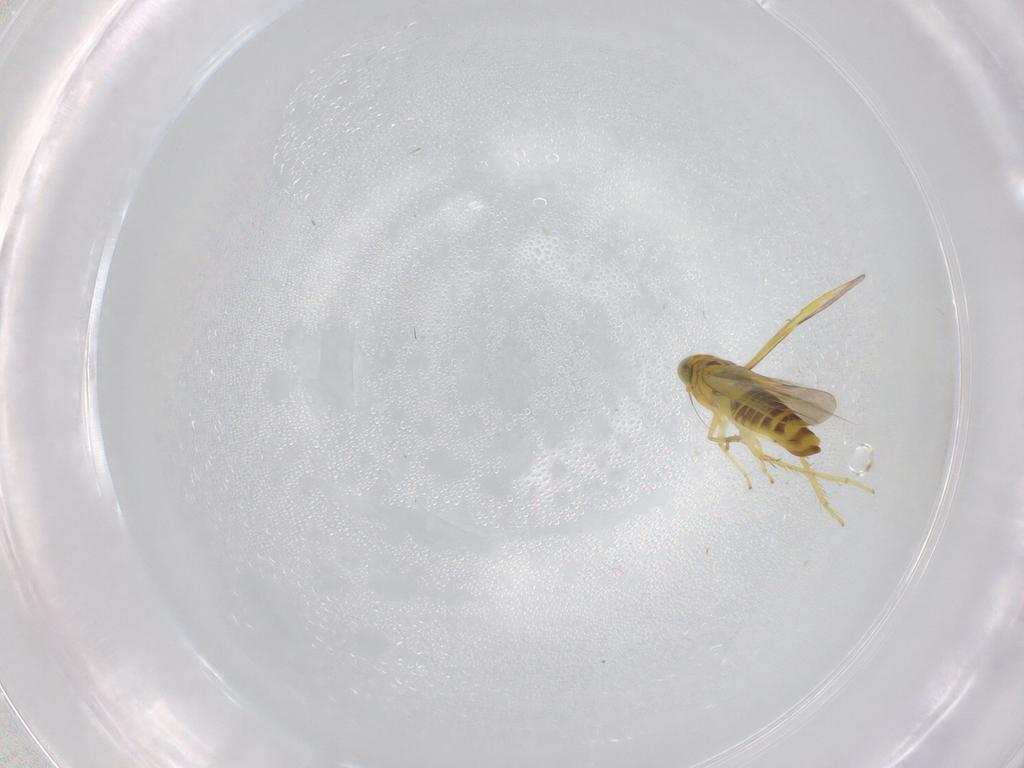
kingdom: Animalia
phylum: Arthropoda
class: Insecta
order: Hemiptera
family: Cicadellidae
